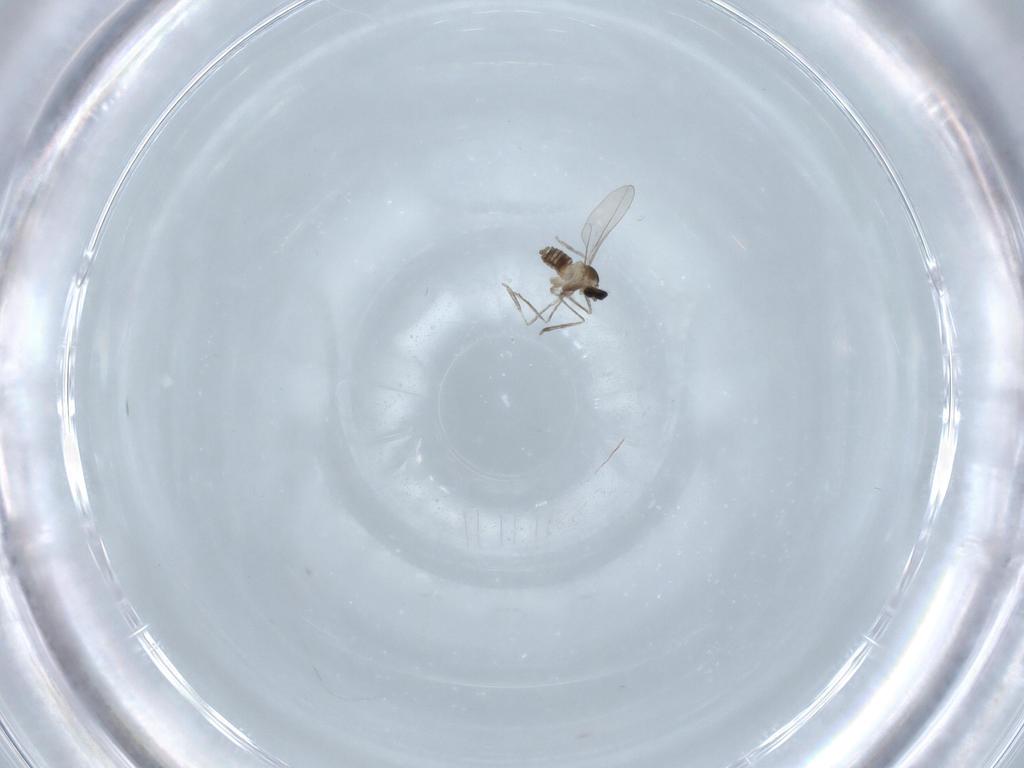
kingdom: Animalia
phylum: Arthropoda
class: Insecta
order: Diptera
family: Cecidomyiidae
